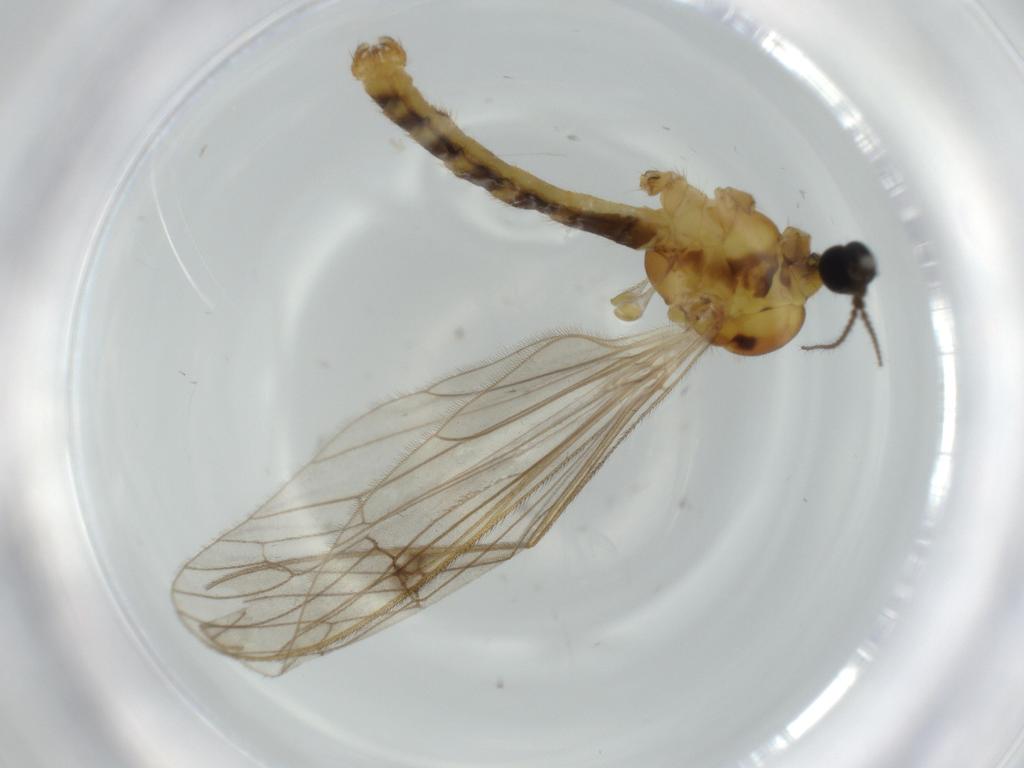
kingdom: Animalia
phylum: Arthropoda
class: Insecta
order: Diptera
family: Limoniidae
